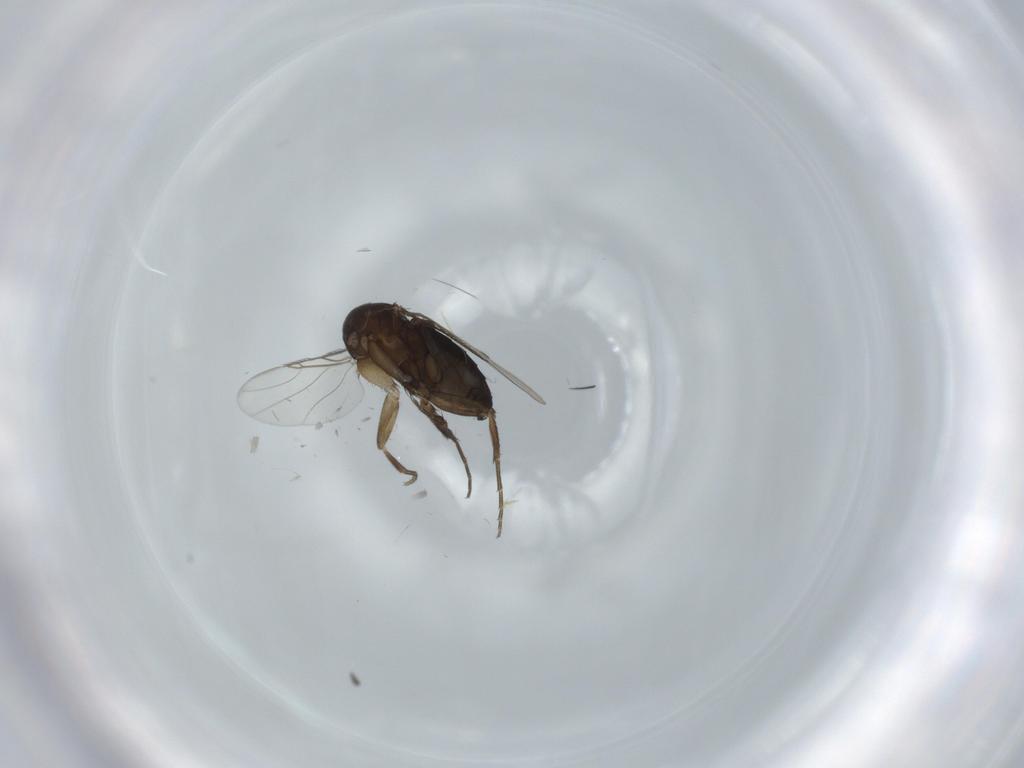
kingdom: Animalia
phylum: Arthropoda
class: Insecta
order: Diptera
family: Phoridae
